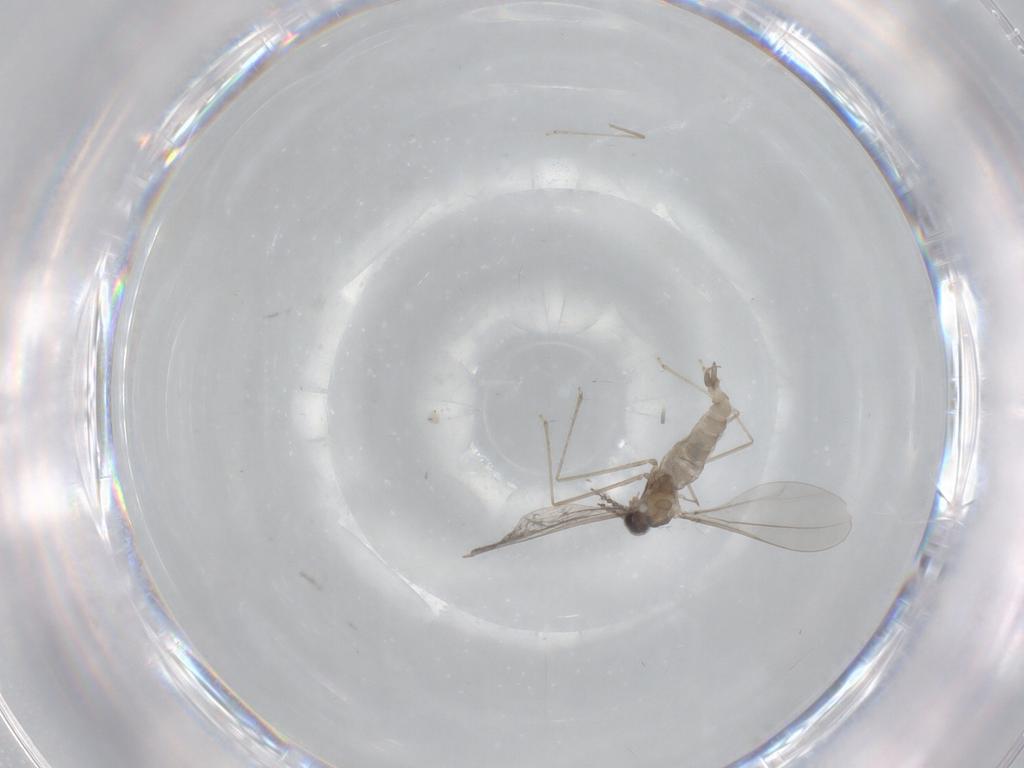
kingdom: Animalia
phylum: Arthropoda
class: Insecta
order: Diptera
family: Cecidomyiidae
